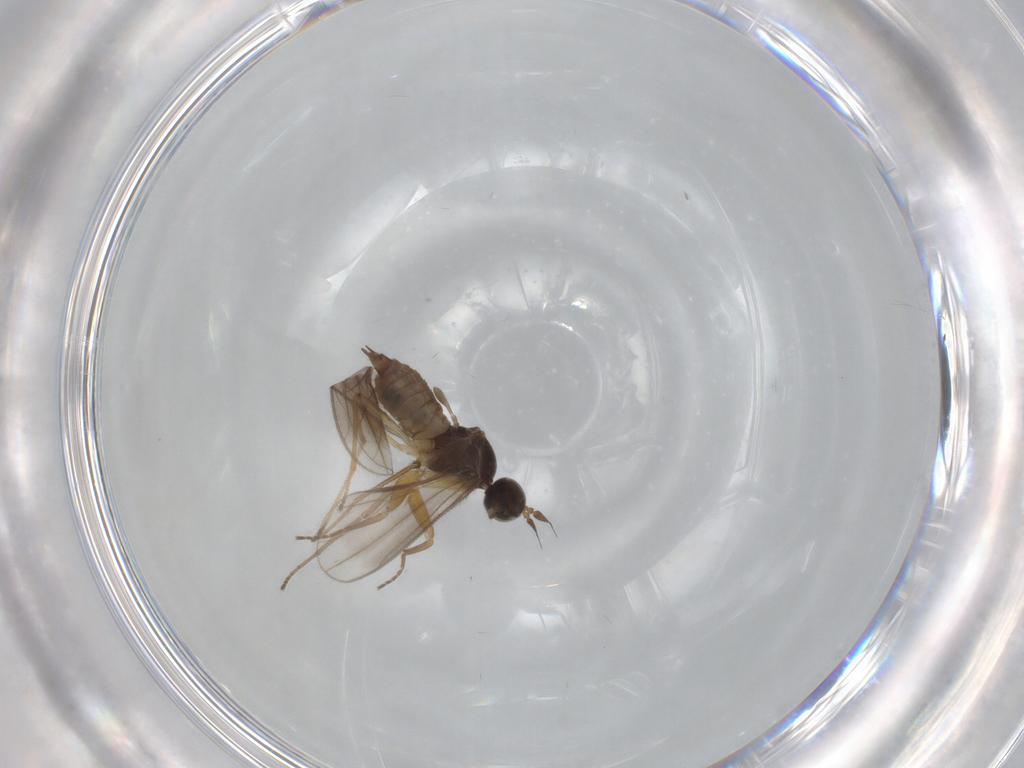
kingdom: Animalia
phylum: Arthropoda
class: Insecta
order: Diptera
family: Empididae
